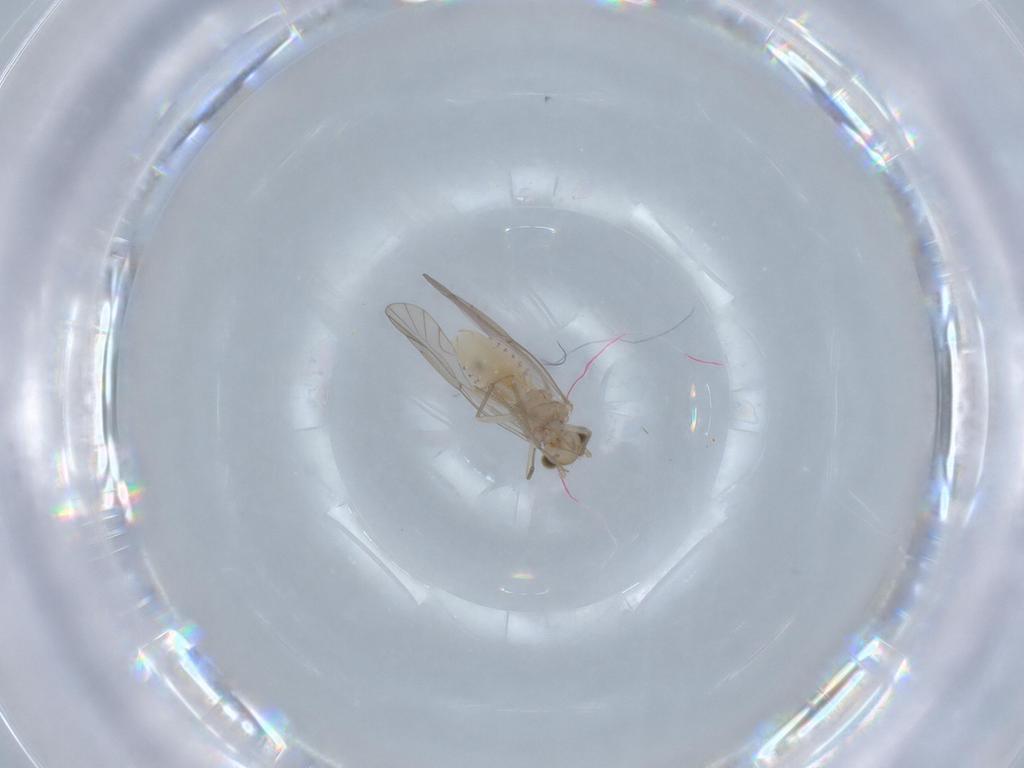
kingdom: Animalia
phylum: Arthropoda
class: Insecta
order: Psocodea
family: Lachesillidae
